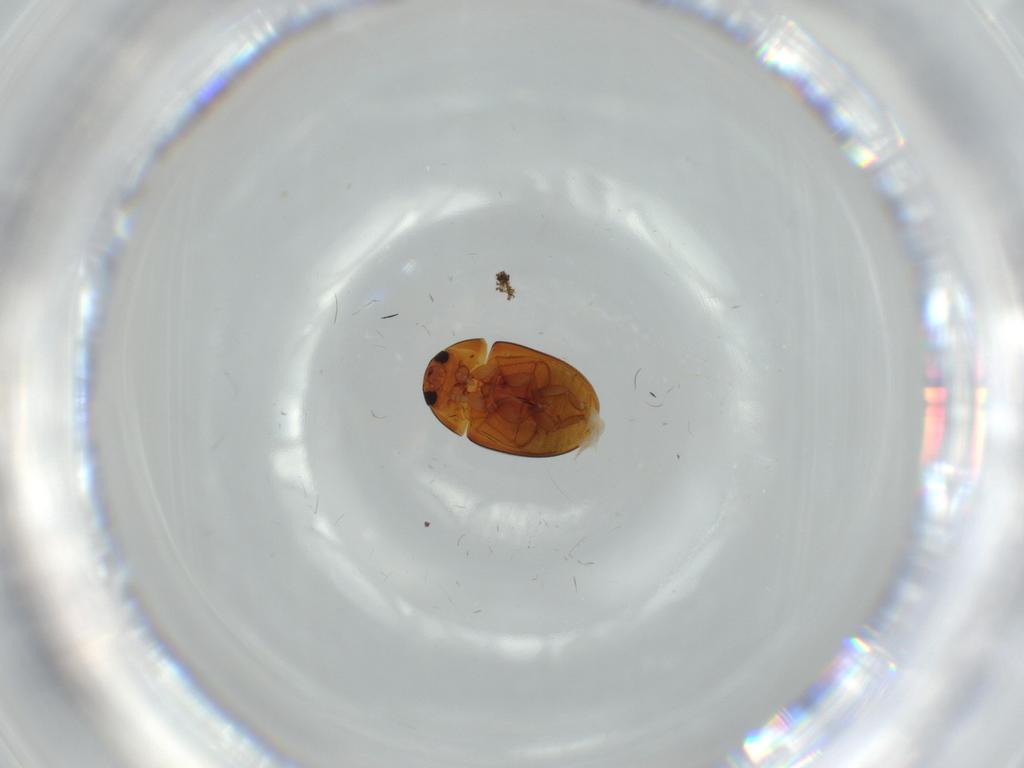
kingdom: Animalia
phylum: Arthropoda
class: Insecta
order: Coleoptera
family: Phalacridae
